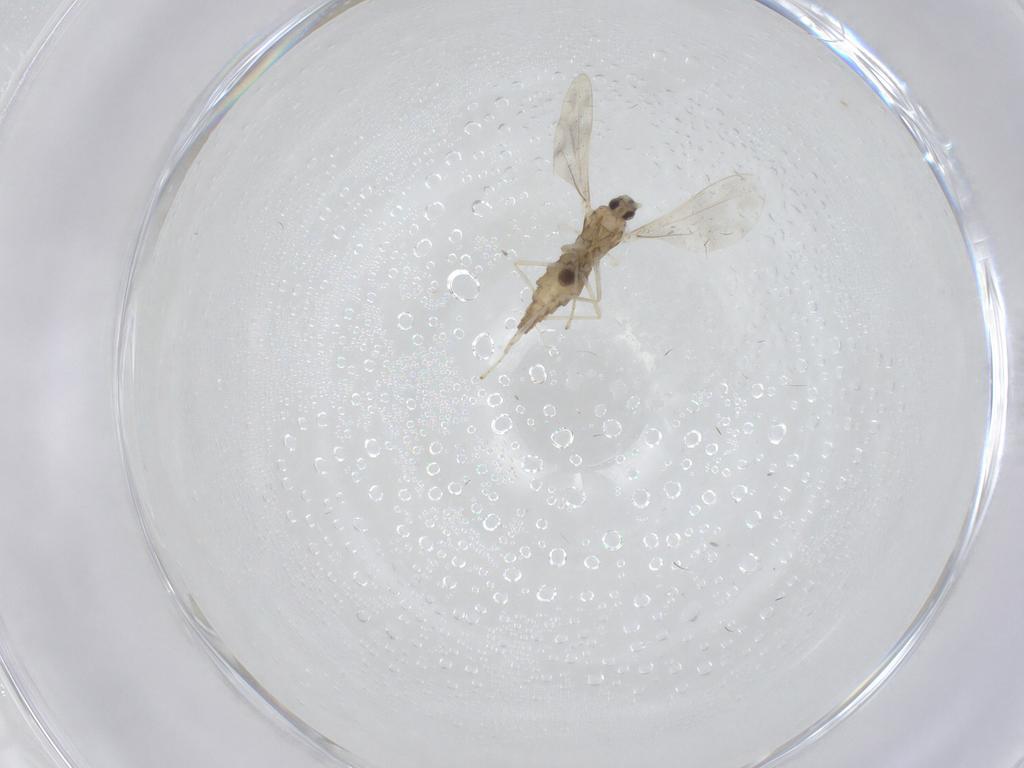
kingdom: Animalia
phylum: Arthropoda
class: Insecta
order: Diptera
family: Cecidomyiidae
